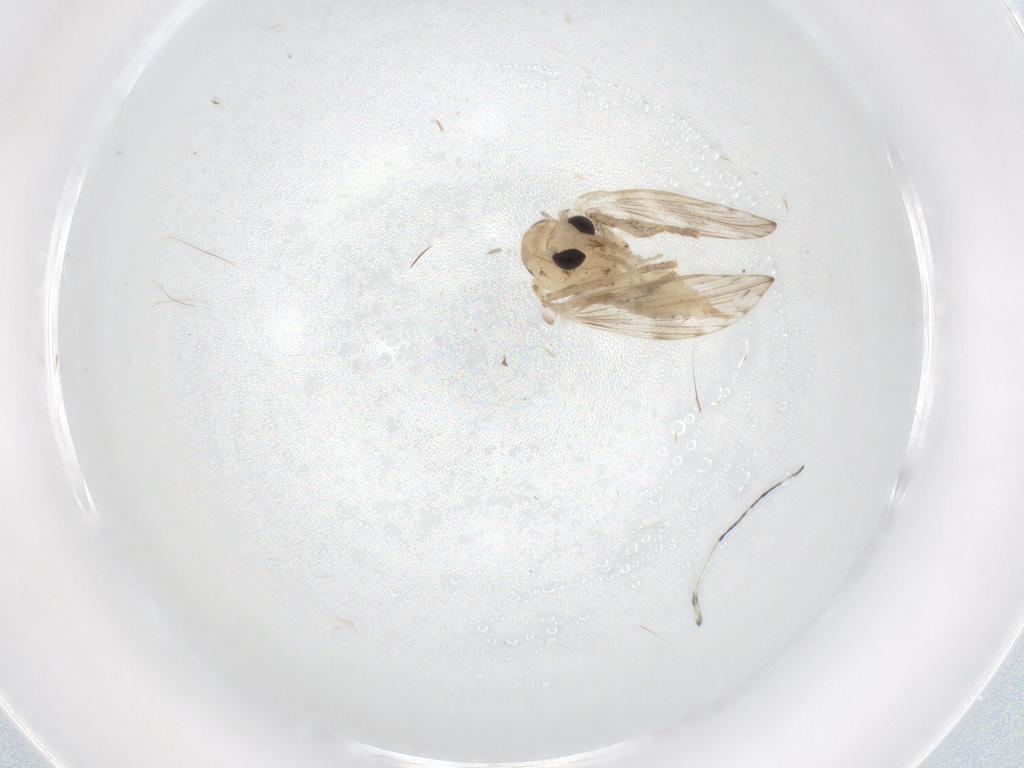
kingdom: Animalia
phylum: Arthropoda
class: Insecta
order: Diptera
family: Psychodidae
